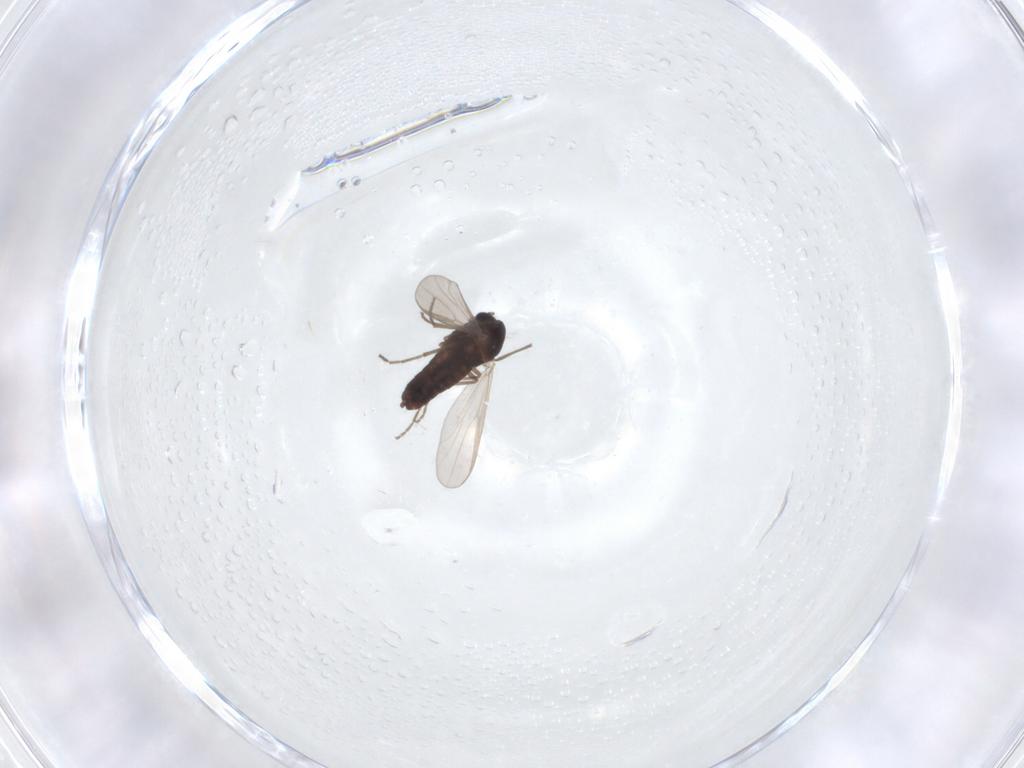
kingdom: Animalia
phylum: Arthropoda
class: Insecta
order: Diptera
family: Chironomidae
